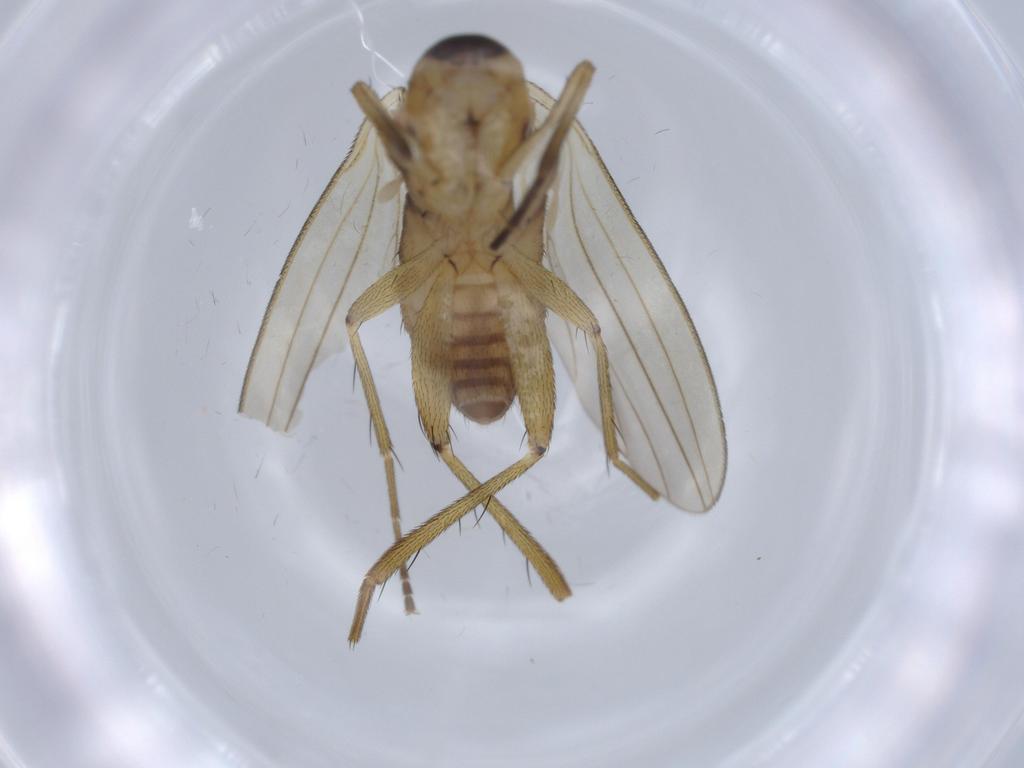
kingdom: Animalia
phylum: Arthropoda
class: Insecta
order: Diptera
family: Lonchopteridae
